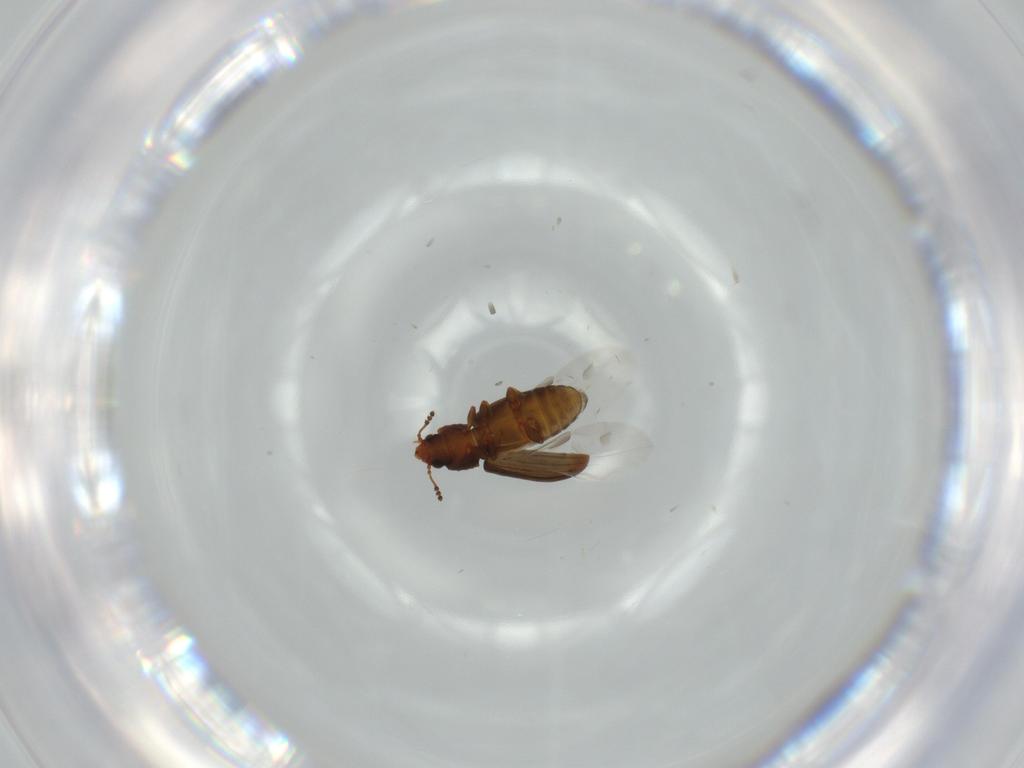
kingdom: Animalia
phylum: Arthropoda
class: Insecta
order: Coleoptera
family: Laemophloeidae
